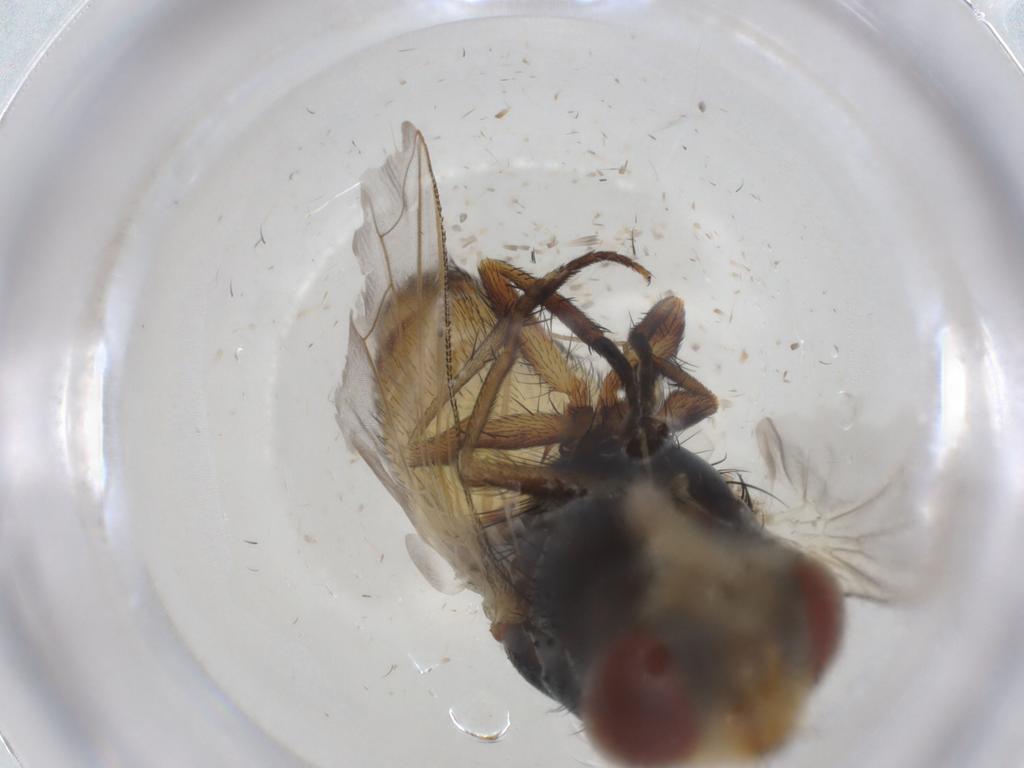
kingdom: Animalia
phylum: Arthropoda
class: Insecta
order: Diptera
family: Sarcophagidae
